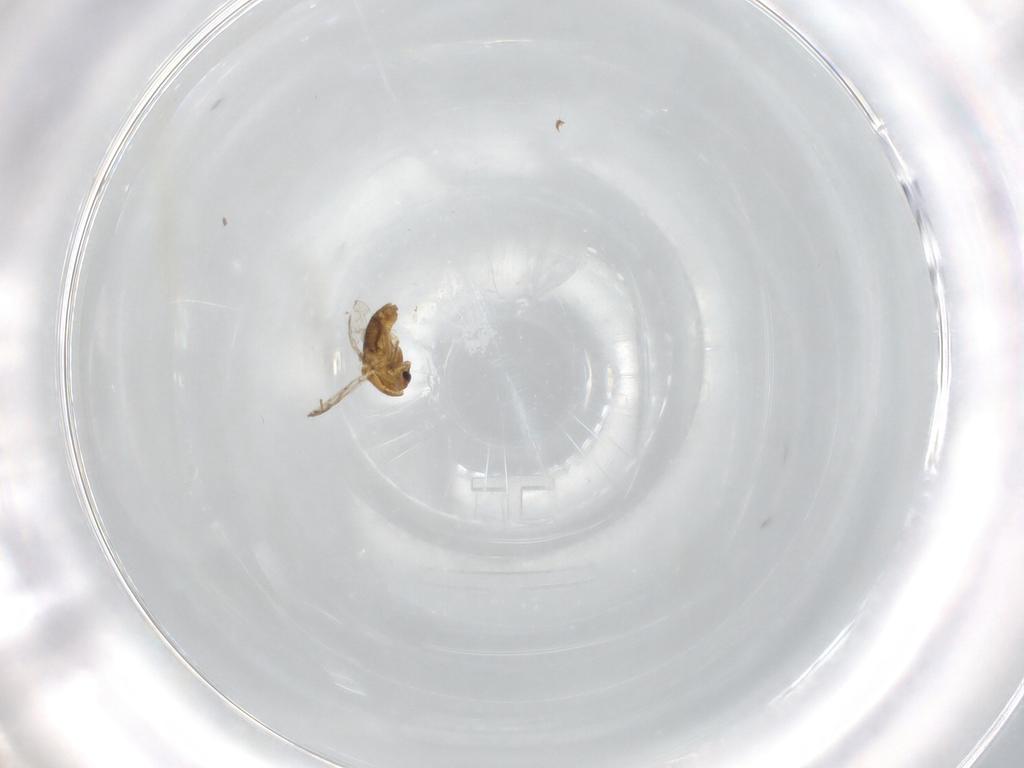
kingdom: Animalia
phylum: Arthropoda
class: Insecta
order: Diptera
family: Chironomidae
